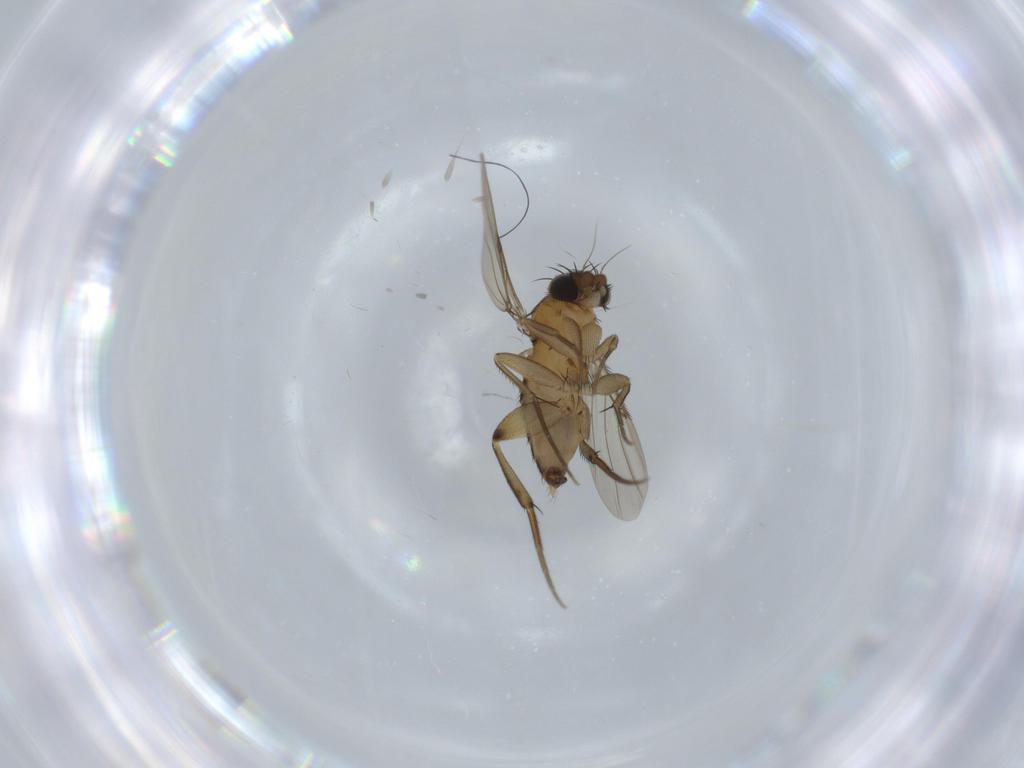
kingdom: Animalia
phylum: Arthropoda
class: Insecta
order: Diptera
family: Phoridae
